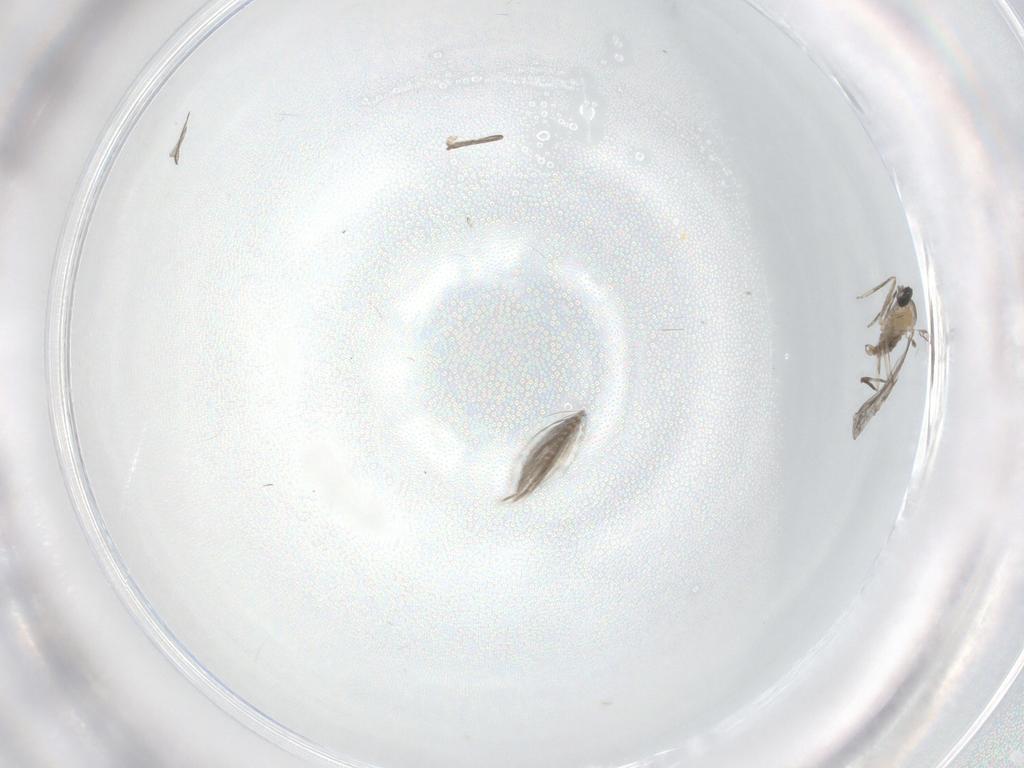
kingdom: Animalia
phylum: Arthropoda
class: Insecta
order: Diptera
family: Cecidomyiidae
